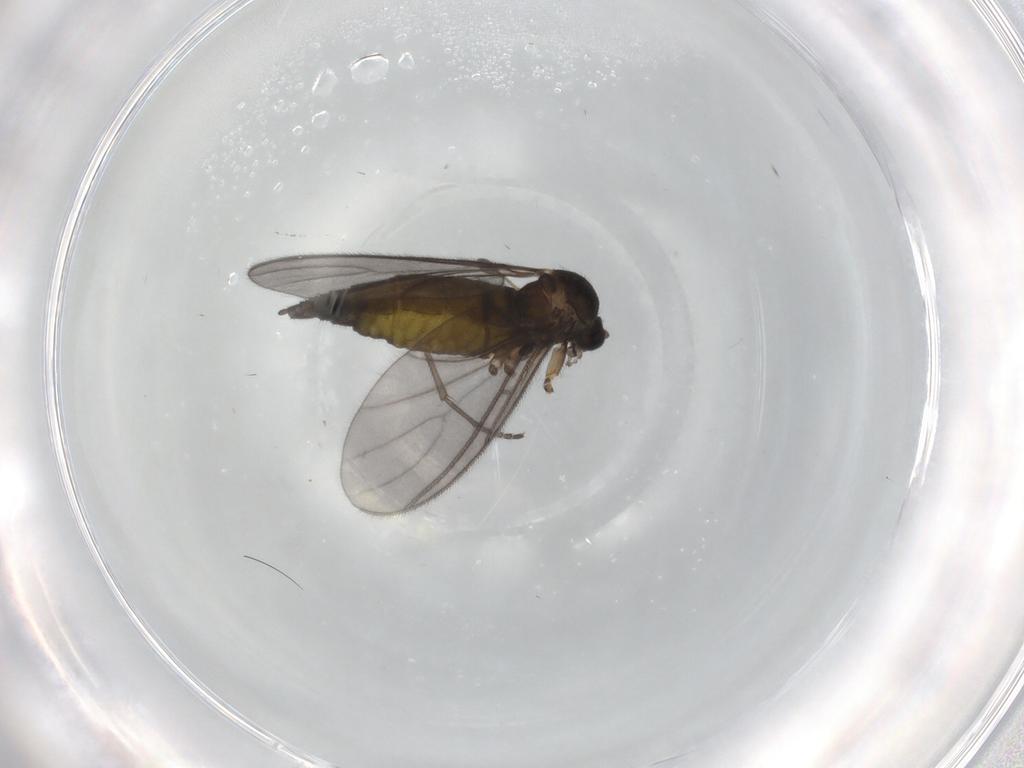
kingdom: Animalia
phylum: Arthropoda
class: Insecta
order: Diptera
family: Sciaridae
